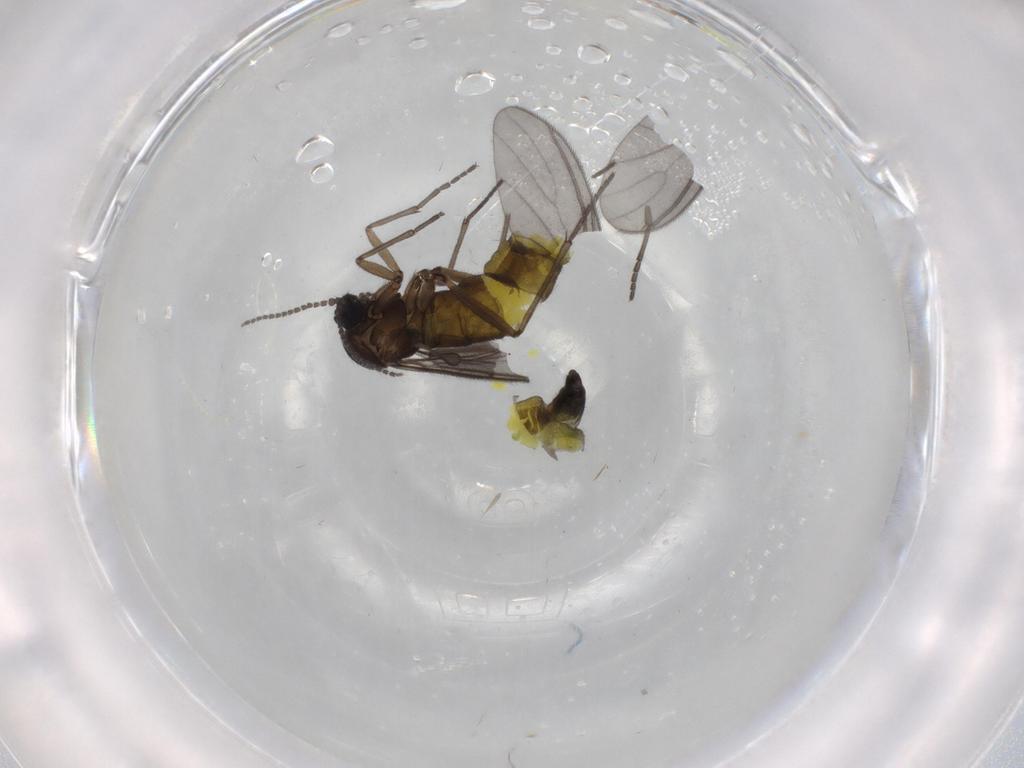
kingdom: Animalia
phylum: Arthropoda
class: Insecta
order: Diptera
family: Sciaridae
